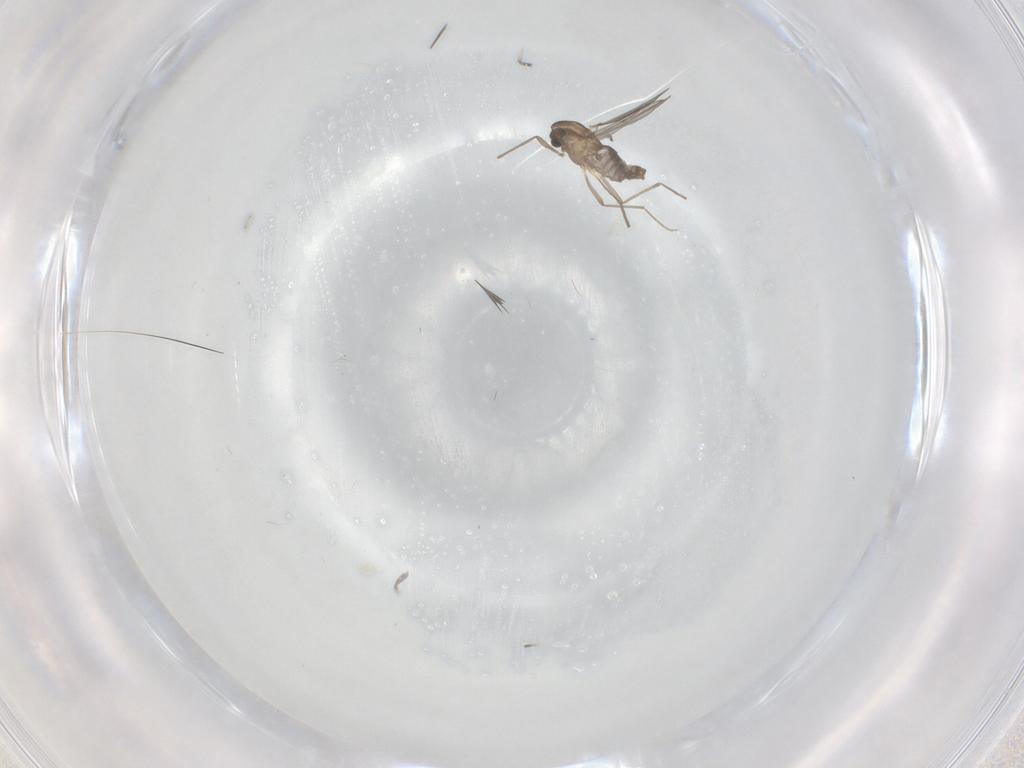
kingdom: Animalia
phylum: Arthropoda
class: Insecta
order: Diptera
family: Chironomidae
